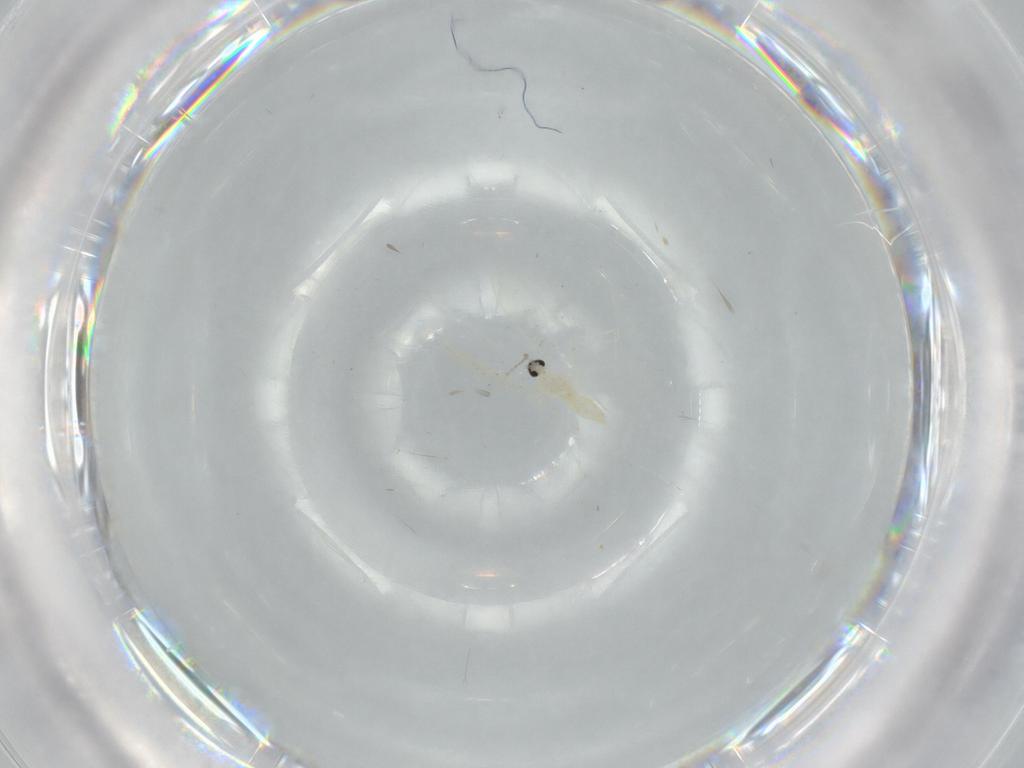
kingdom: Animalia
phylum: Arthropoda
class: Insecta
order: Diptera
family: Cecidomyiidae
